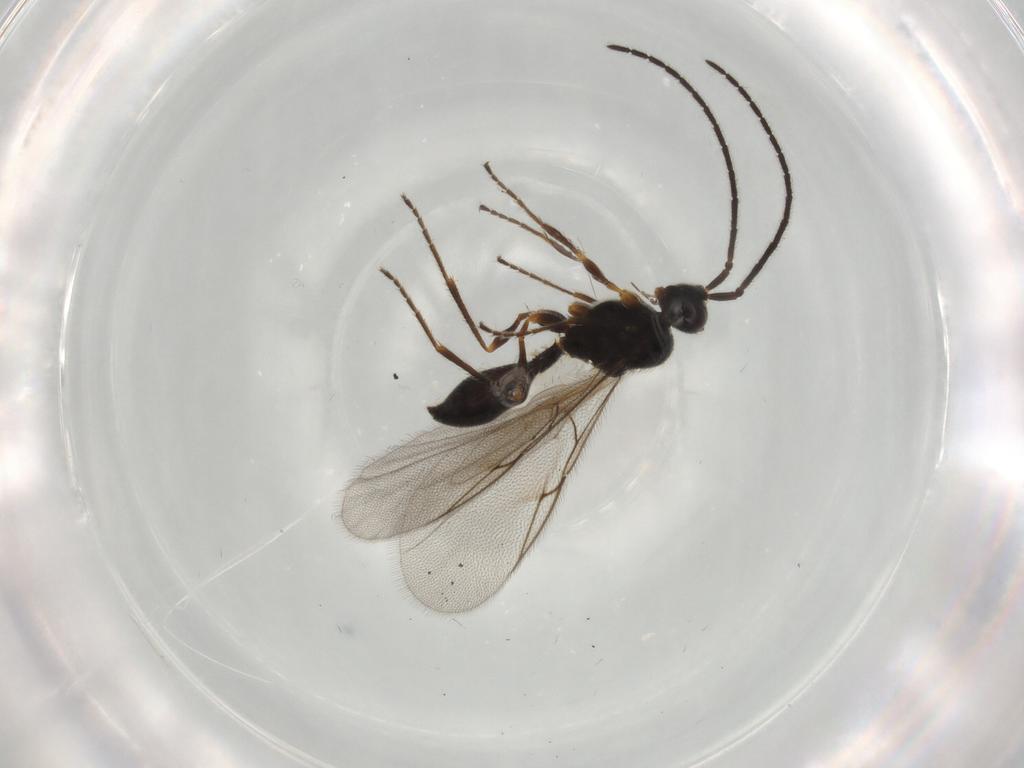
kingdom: Animalia
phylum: Arthropoda
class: Insecta
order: Hymenoptera
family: Diapriidae
